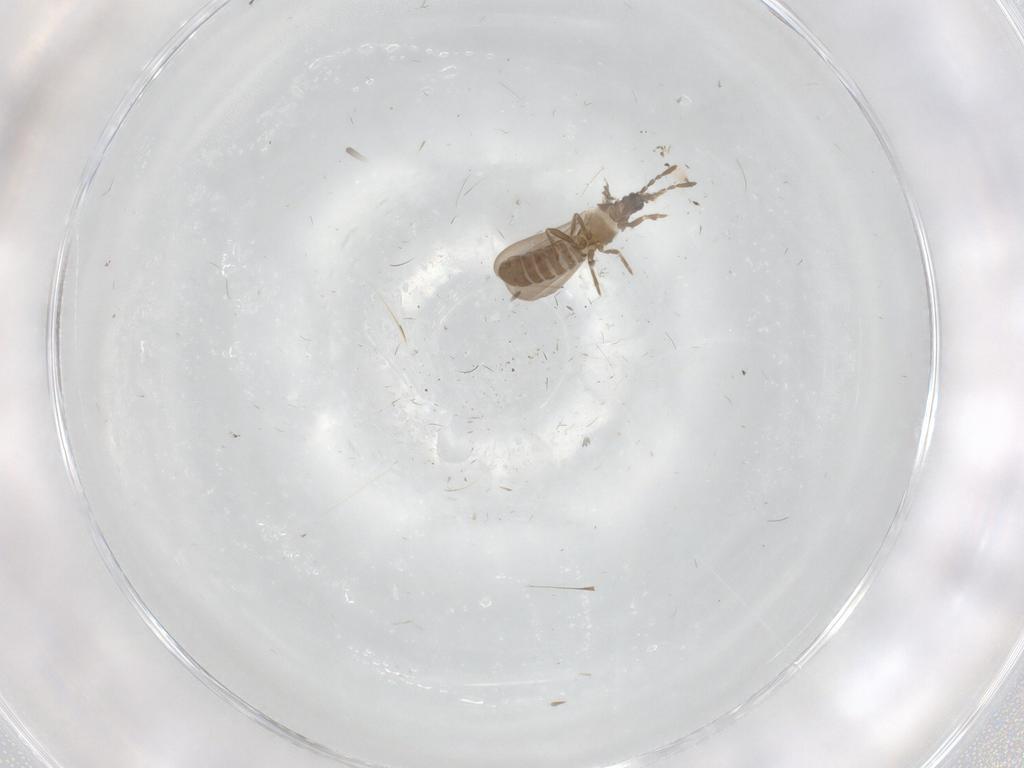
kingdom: Animalia
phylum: Arthropoda
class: Insecta
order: Hemiptera
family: Cicadellidae
